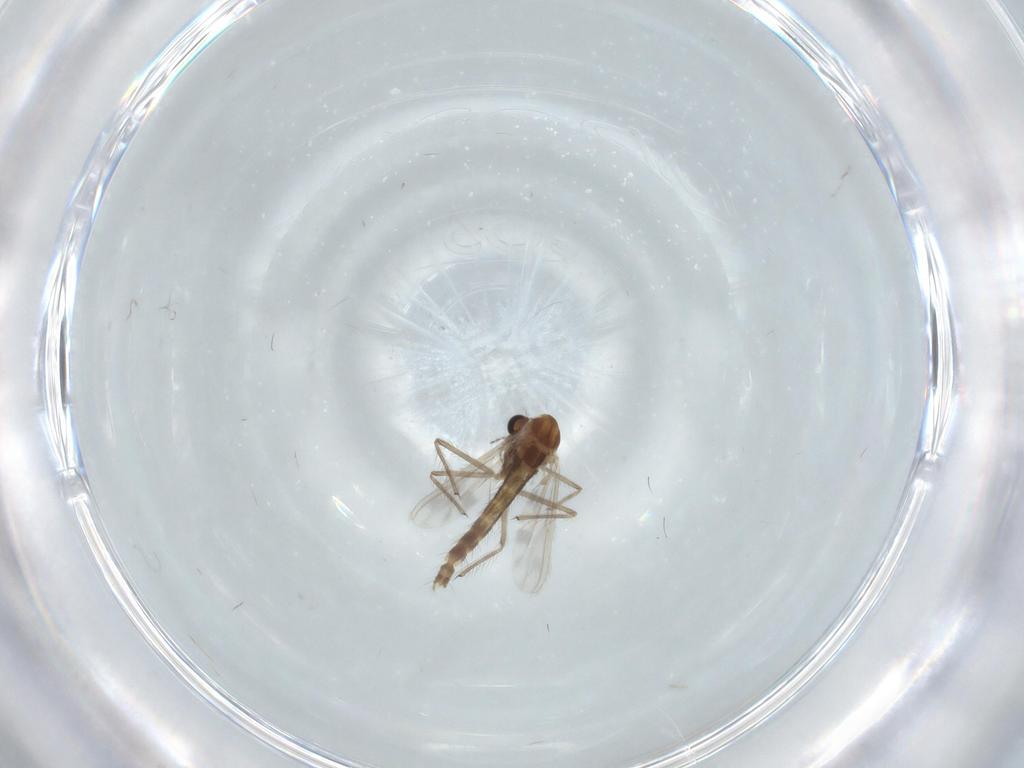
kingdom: Animalia
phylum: Arthropoda
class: Insecta
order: Diptera
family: Chironomidae
